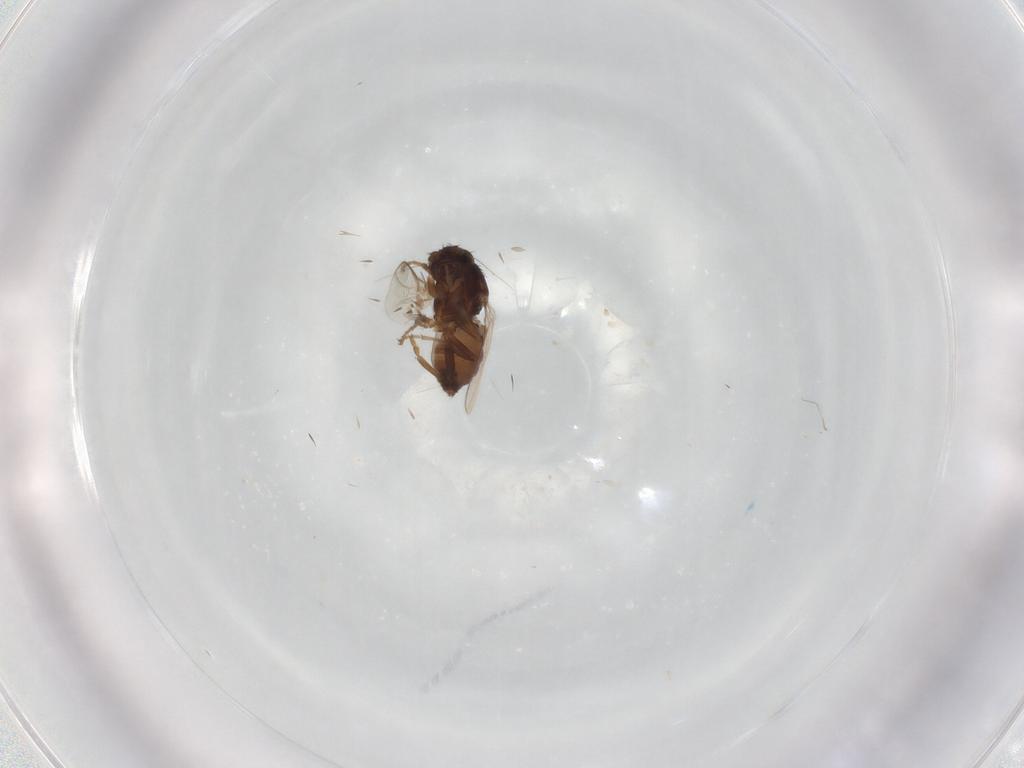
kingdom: Animalia
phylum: Arthropoda
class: Insecta
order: Diptera
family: Sphaeroceridae
